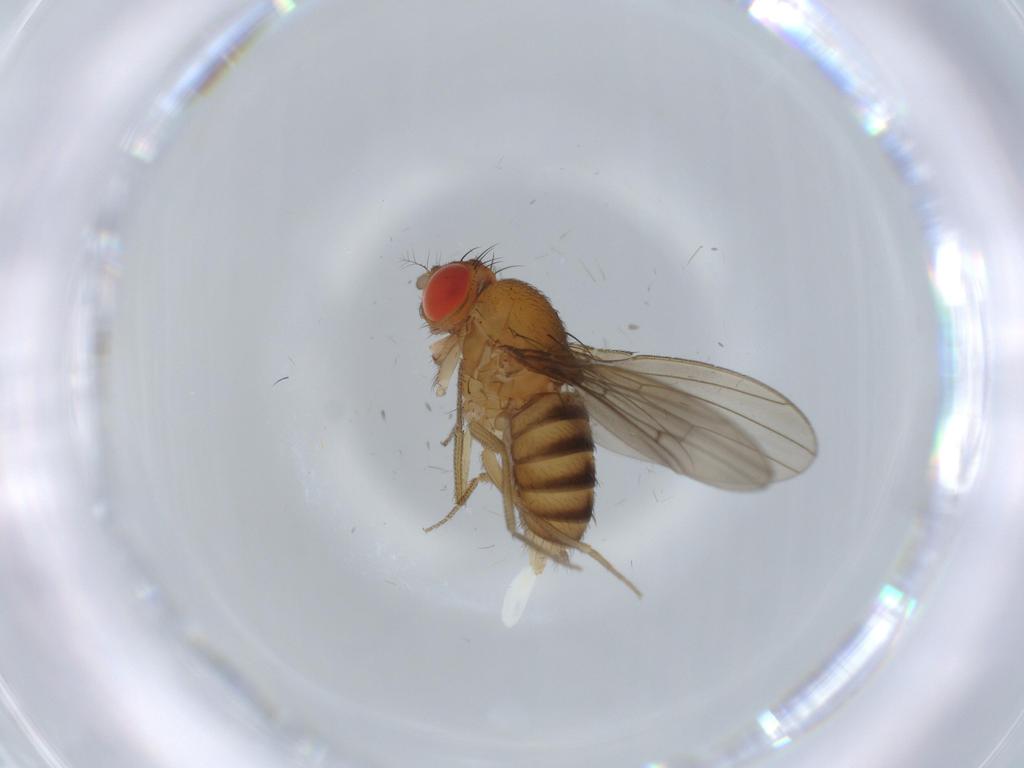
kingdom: Animalia
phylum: Arthropoda
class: Insecta
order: Diptera
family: Drosophilidae
